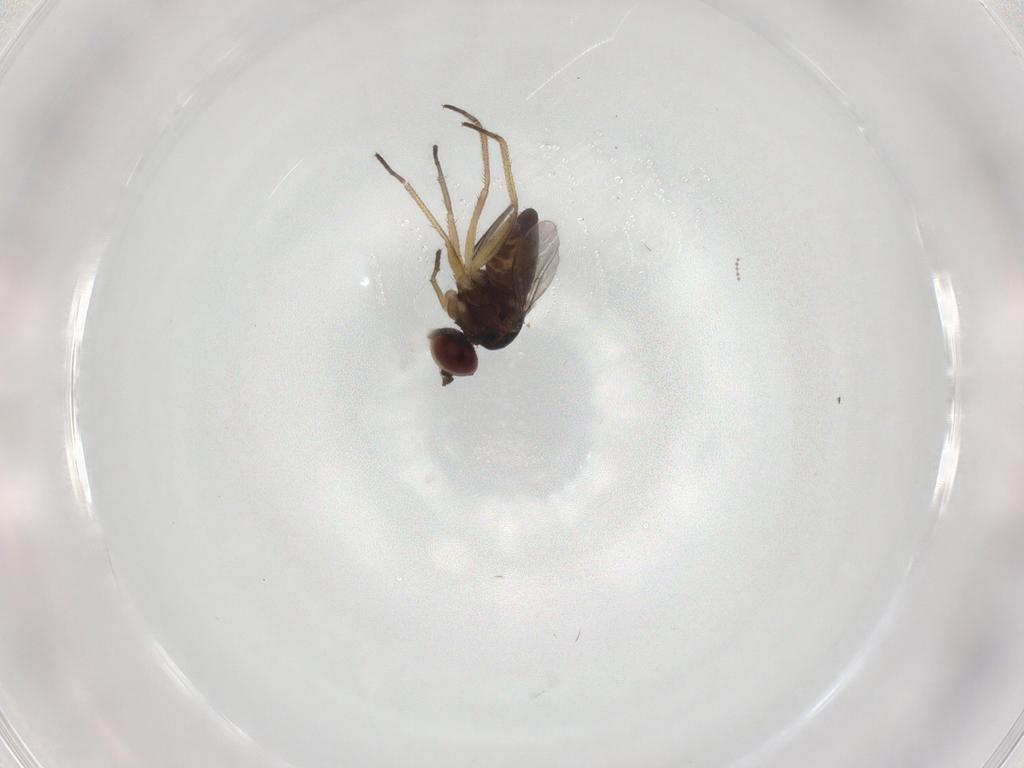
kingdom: Animalia
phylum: Arthropoda
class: Insecta
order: Diptera
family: Dolichopodidae
